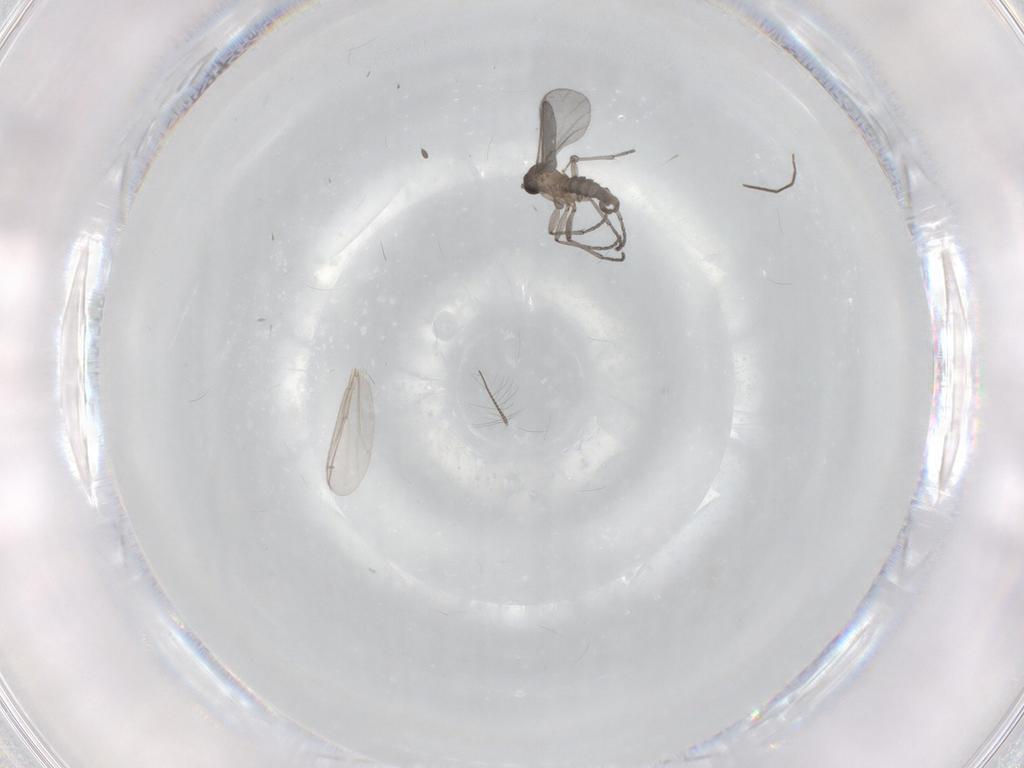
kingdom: Animalia
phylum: Arthropoda
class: Insecta
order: Diptera
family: Sciaridae
